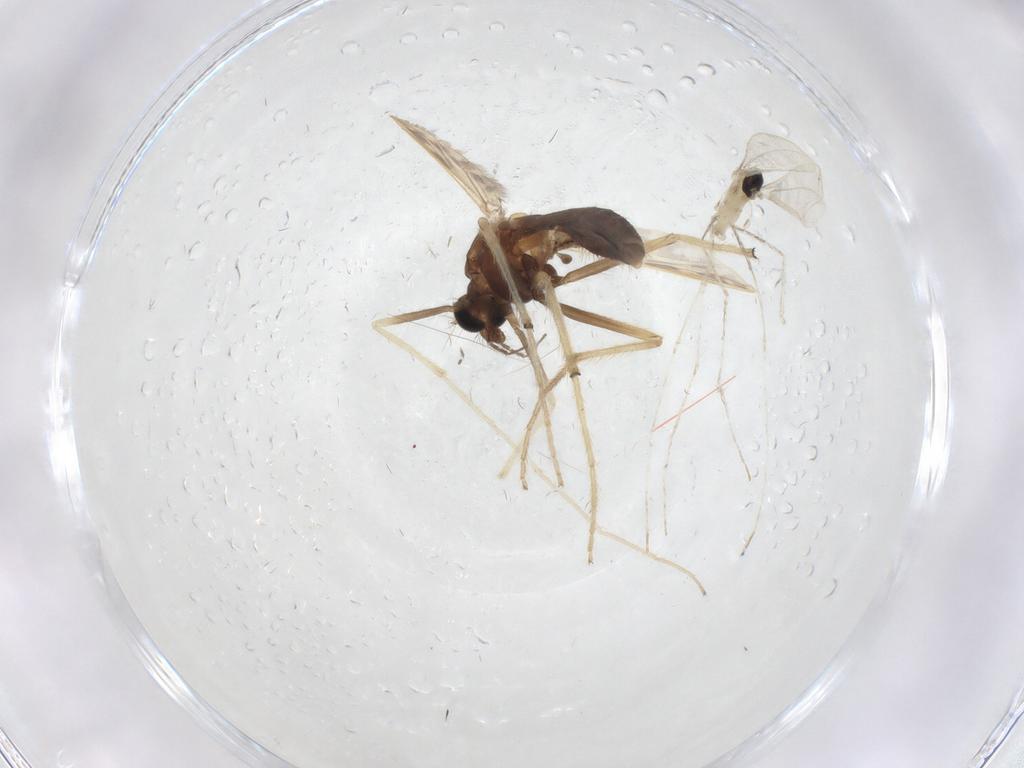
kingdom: Animalia
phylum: Arthropoda
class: Insecta
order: Diptera
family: Cecidomyiidae
